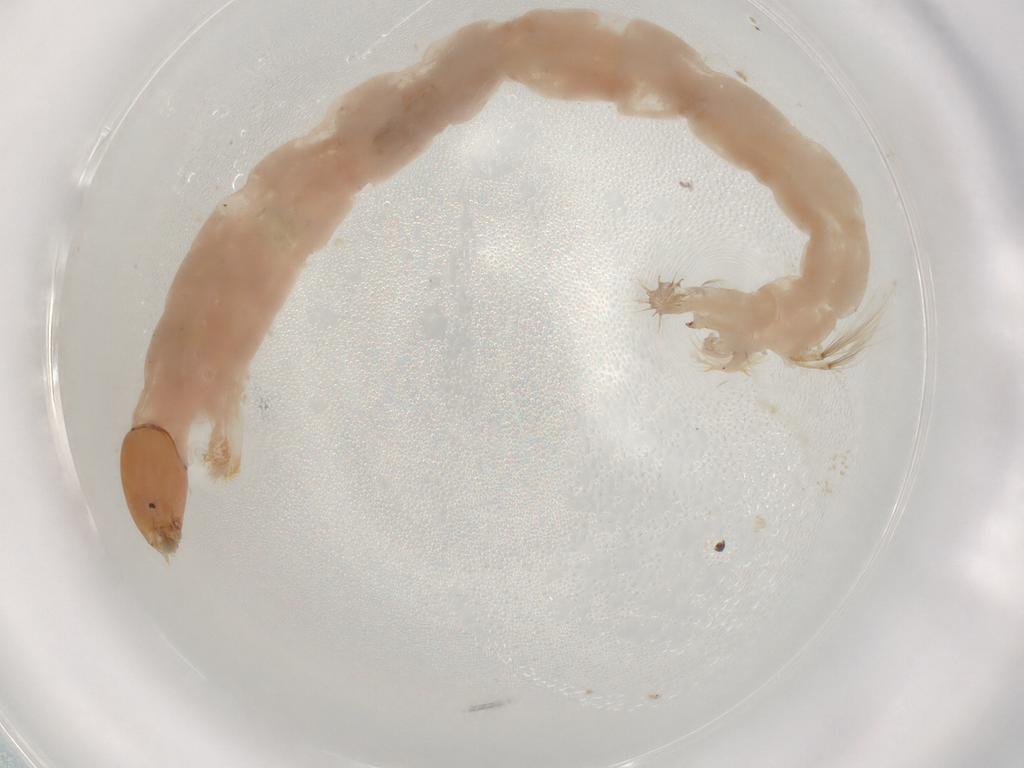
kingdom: Animalia
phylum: Arthropoda
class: Insecta
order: Diptera
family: Chironomidae
